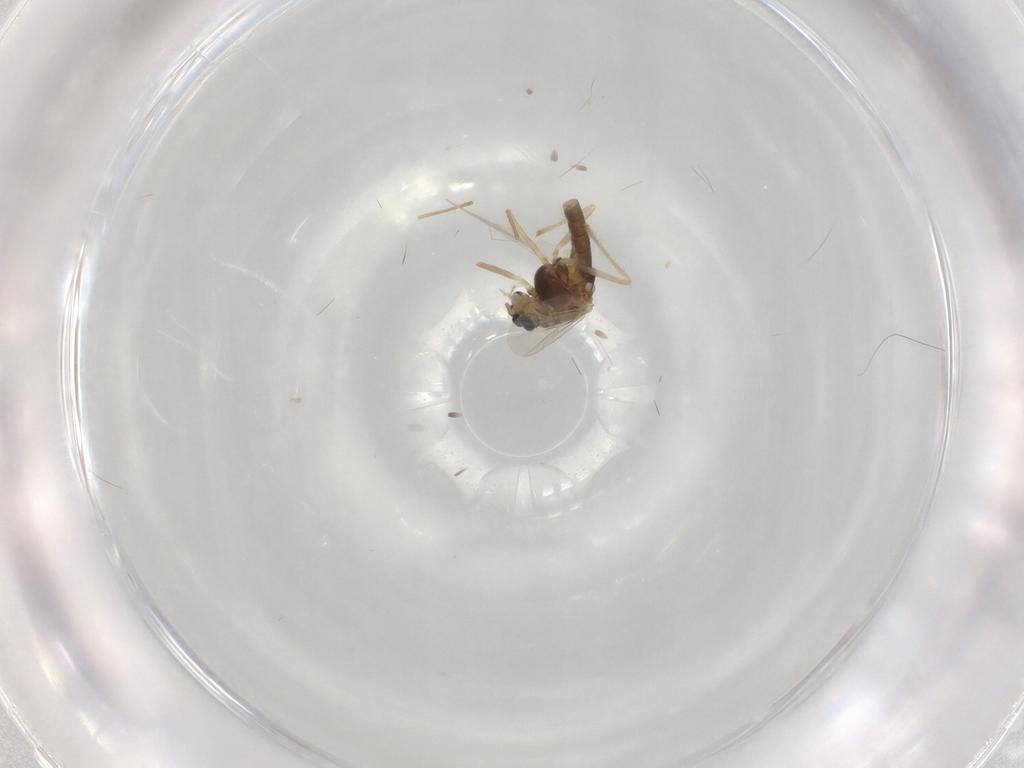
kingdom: Animalia
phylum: Arthropoda
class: Insecta
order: Diptera
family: Chironomidae
